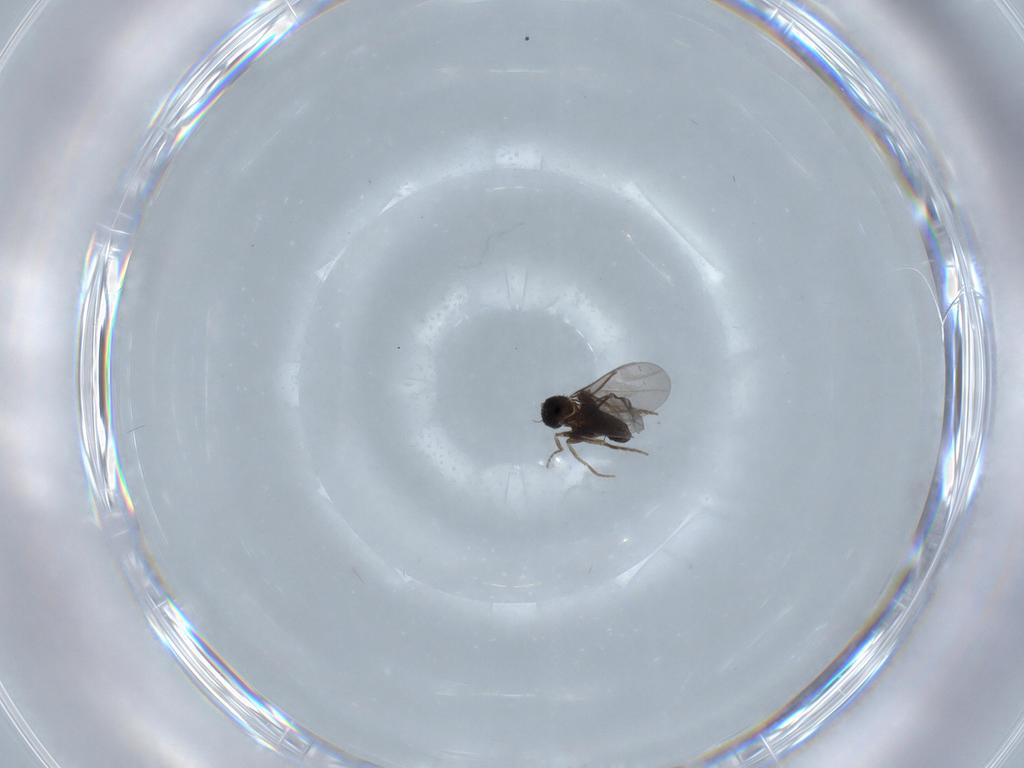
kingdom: Animalia
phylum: Arthropoda
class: Insecta
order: Diptera
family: Phoridae
